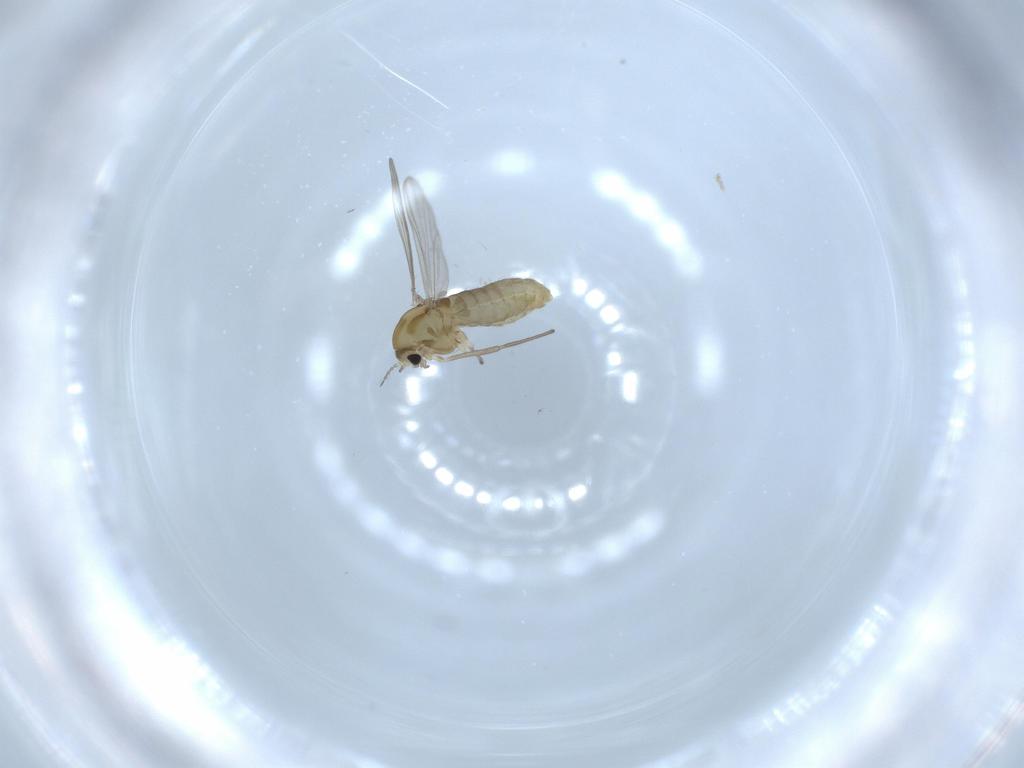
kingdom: Animalia
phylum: Arthropoda
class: Insecta
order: Diptera
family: Chironomidae
